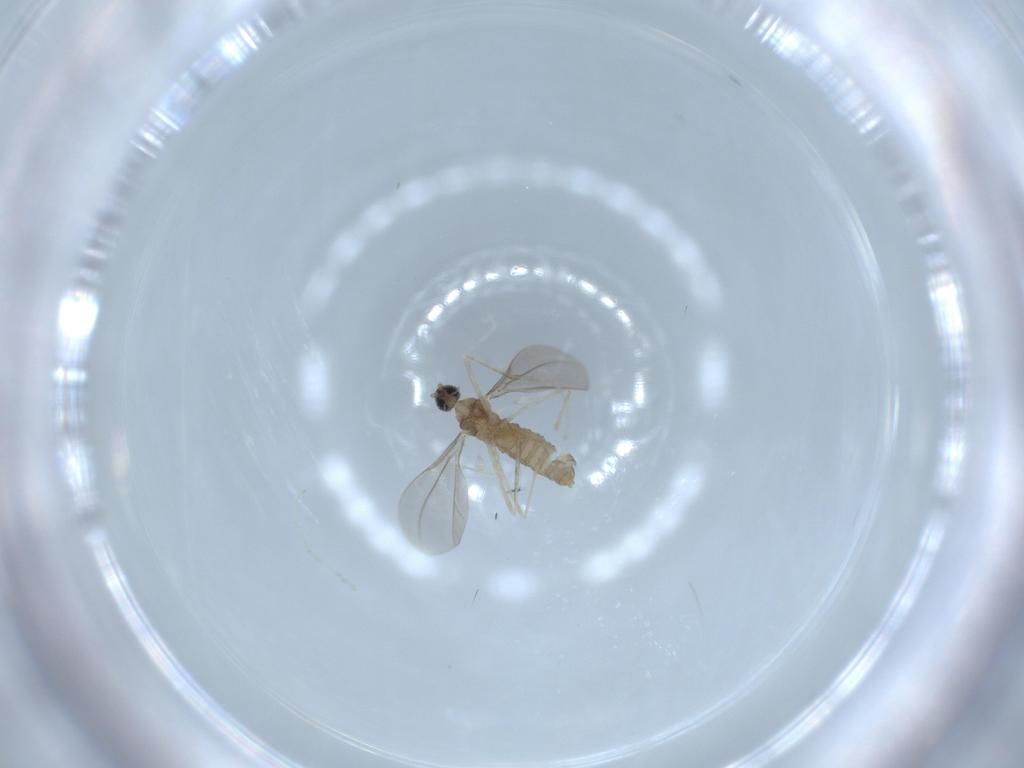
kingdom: Animalia
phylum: Arthropoda
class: Insecta
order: Diptera
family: Cecidomyiidae
